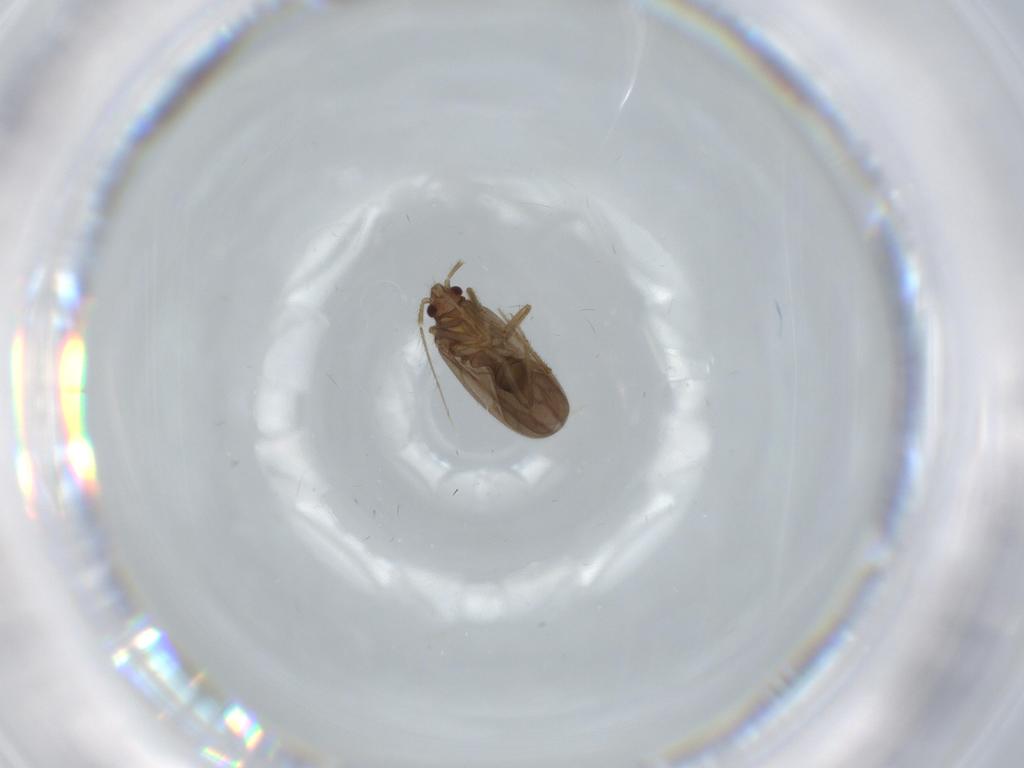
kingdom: Animalia
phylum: Arthropoda
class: Insecta
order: Hemiptera
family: Ceratocombidae
